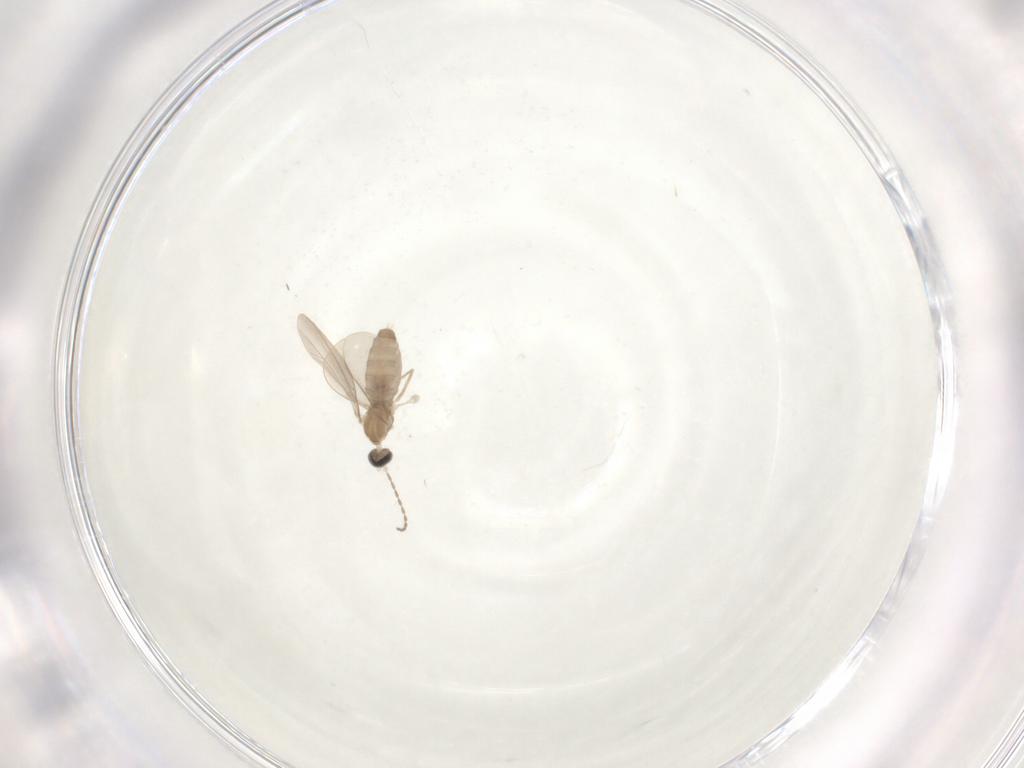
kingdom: Animalia
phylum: Arthropoda
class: Insecta
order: Diptera
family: Cecidomyiidae
